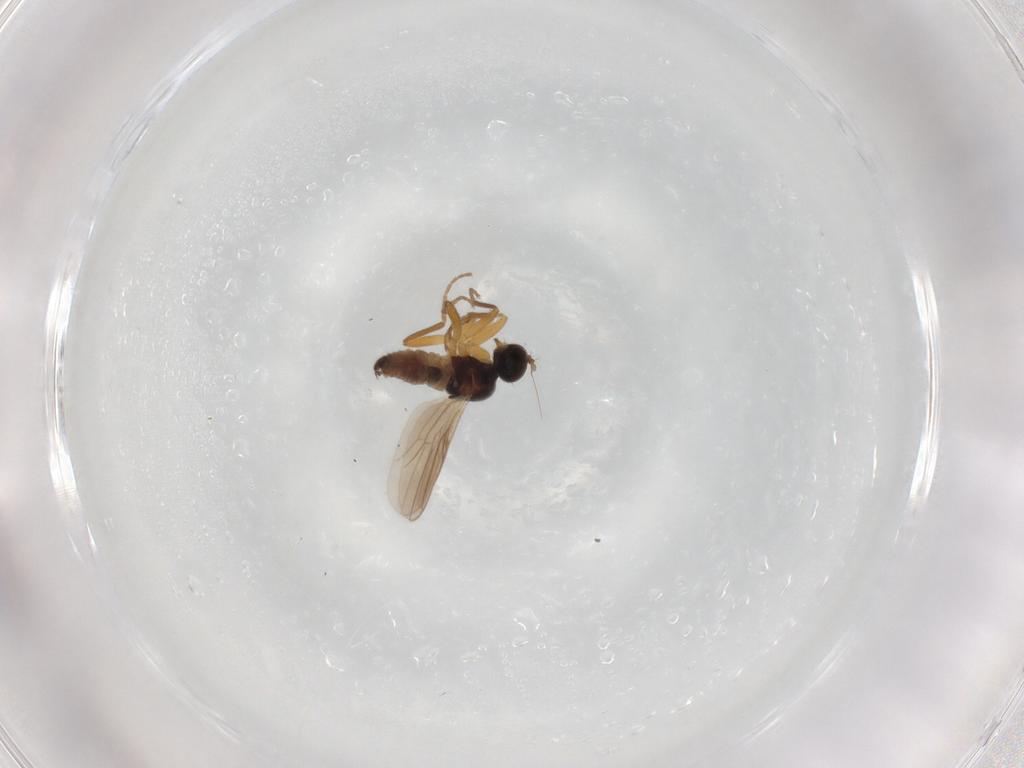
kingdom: Animalia
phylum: Arthropoda
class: Insecta
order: Diptera
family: Hybotidae
